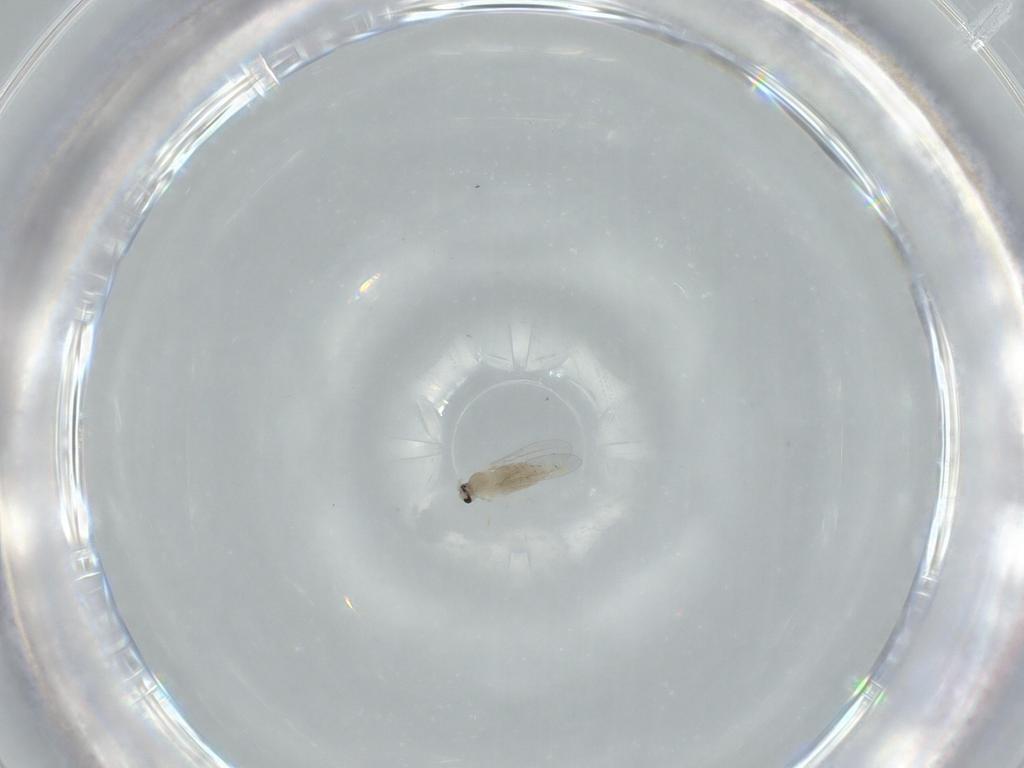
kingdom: Animalia
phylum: Arthropoda
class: Insecta
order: Diptera
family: Cecidomyiidae
